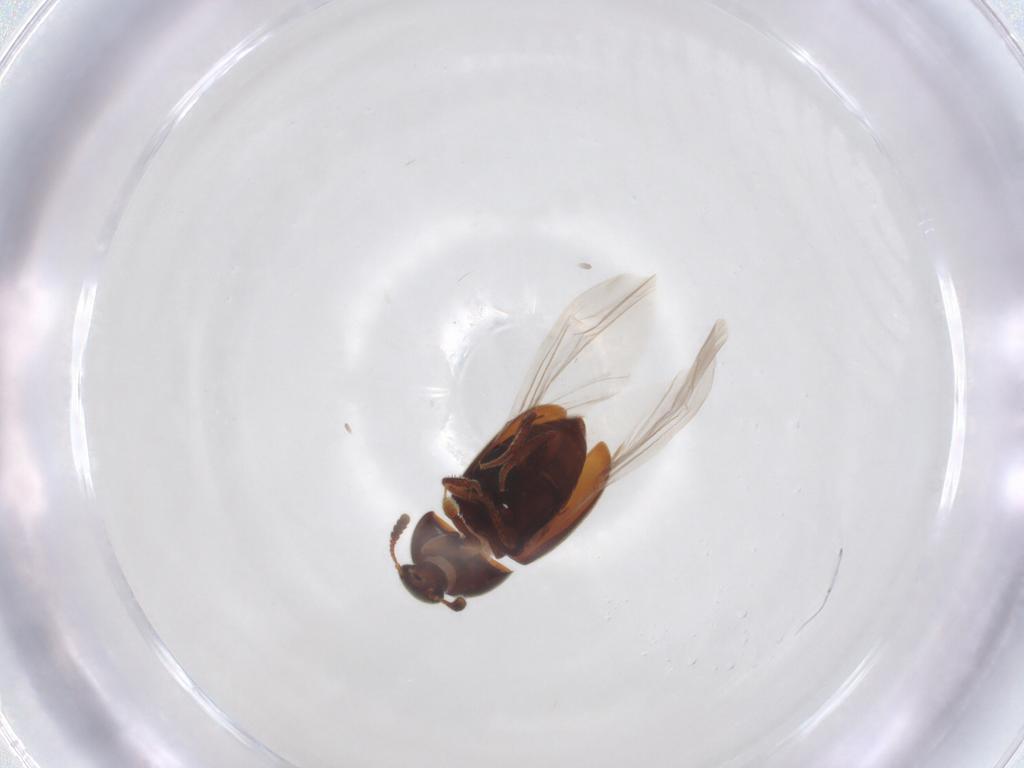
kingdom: Animalia
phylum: Arthropoda
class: Insecta
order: Coleoptera
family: Leiodidae
